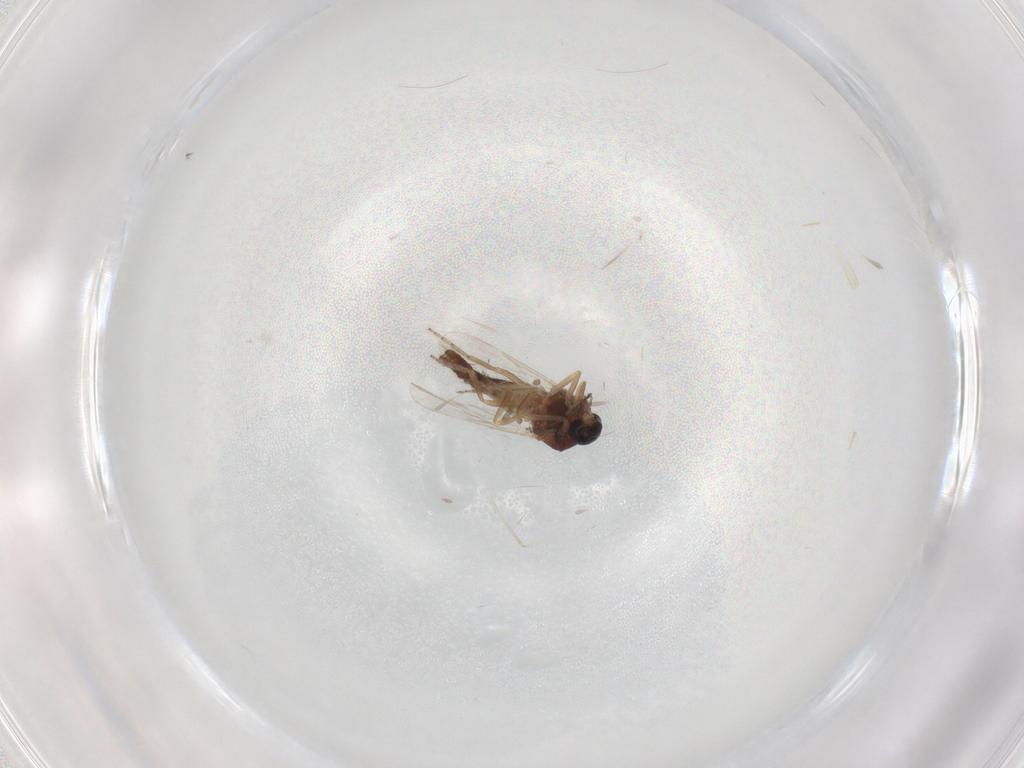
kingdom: Animalia
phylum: Arthropoda
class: Insecta
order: Diptera
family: Ceratopogonidae
